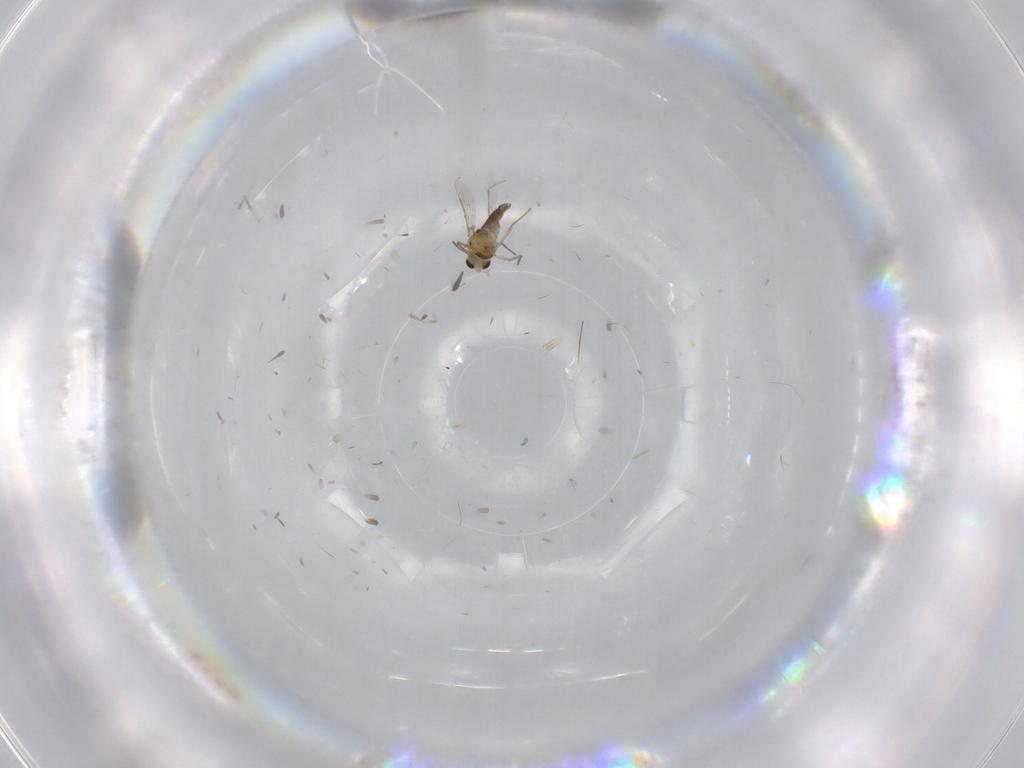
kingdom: Animalia
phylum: Arthropoda
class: Insecta
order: Diptera
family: Chironomidae
